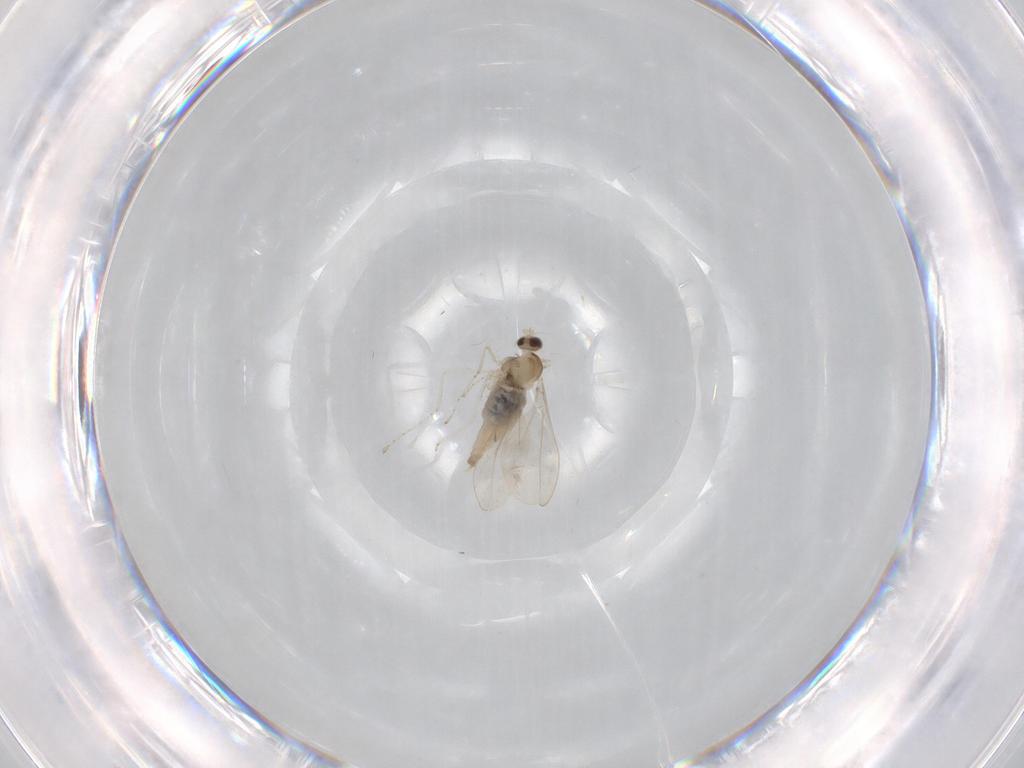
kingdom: Animalia
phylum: Arthropoda
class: Insecta
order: Diptera
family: Cecidomyiidae
